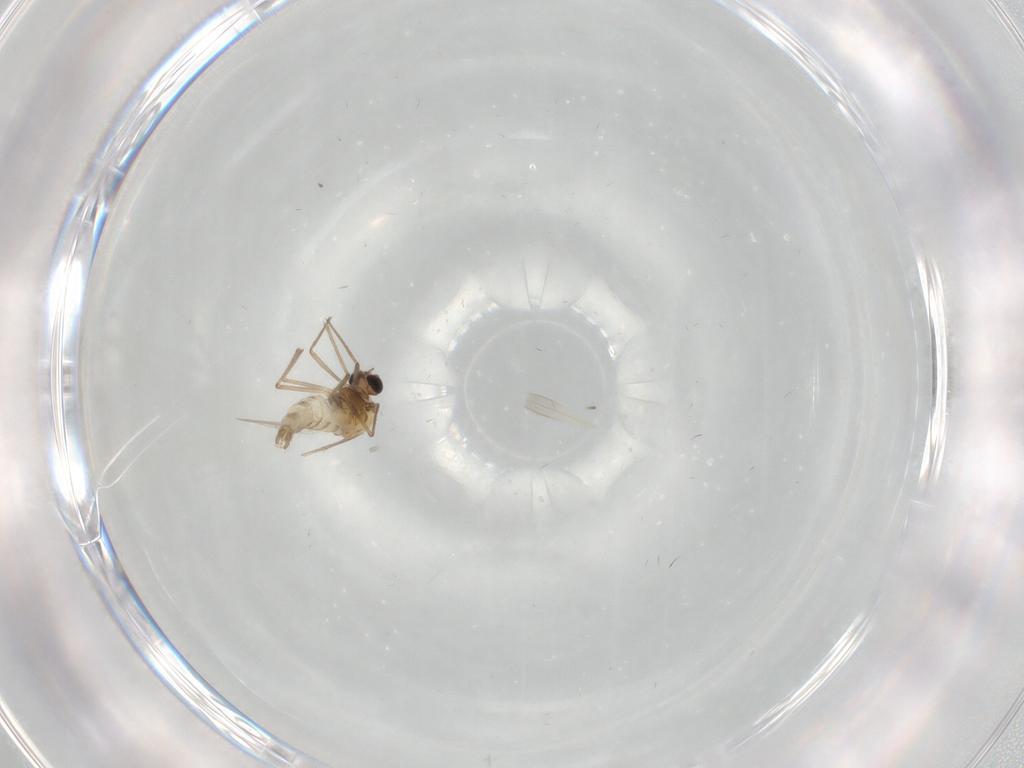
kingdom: Animalia
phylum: Arthropoda
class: Insecta
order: Diptera
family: Chironomidae
